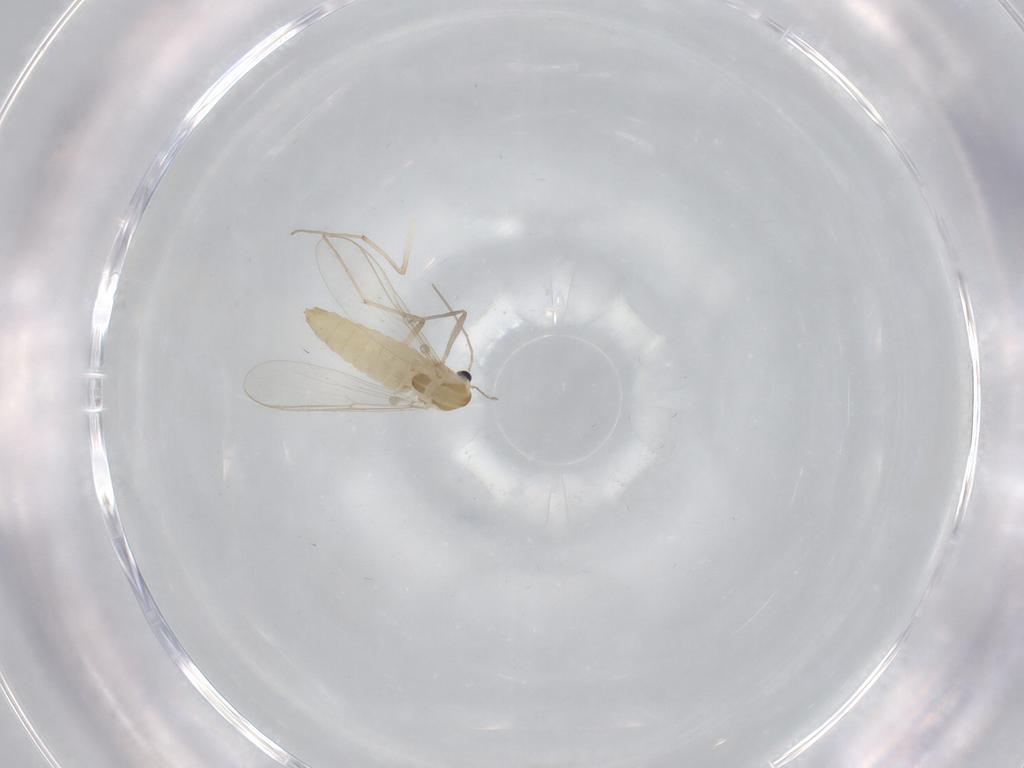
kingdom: Animalia
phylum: Arthropoda
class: Insecta
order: Diptera
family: Chironomidae
